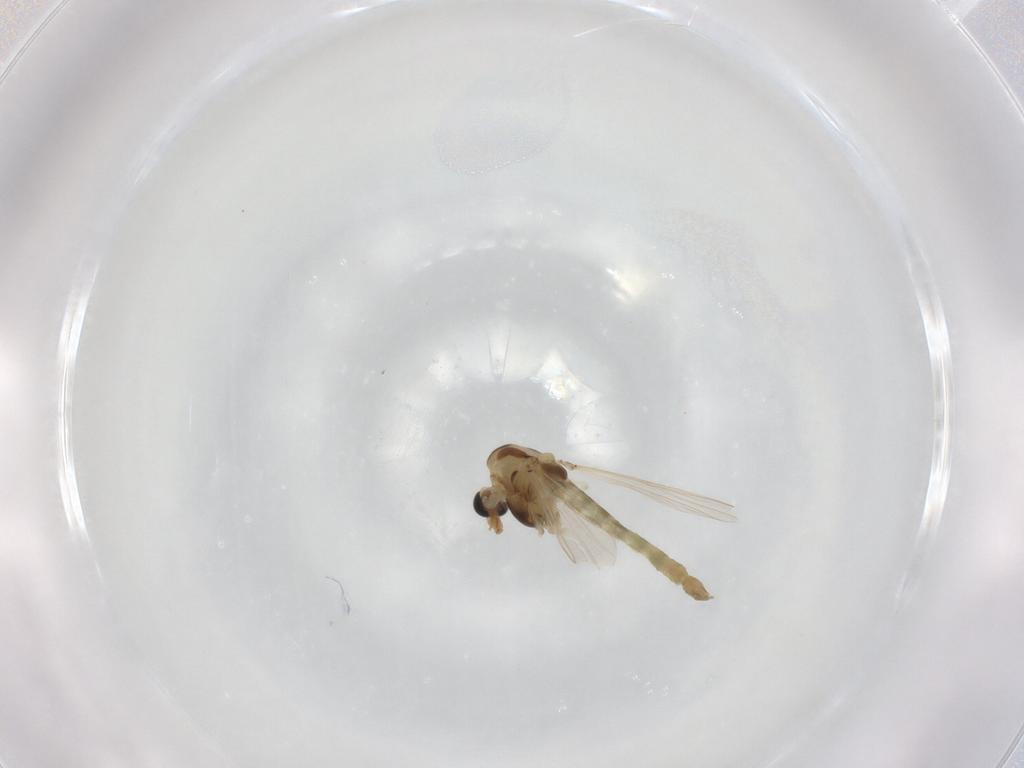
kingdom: Animalia
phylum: Arthropoda
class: Insecta
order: Diptera
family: Chironomidae
